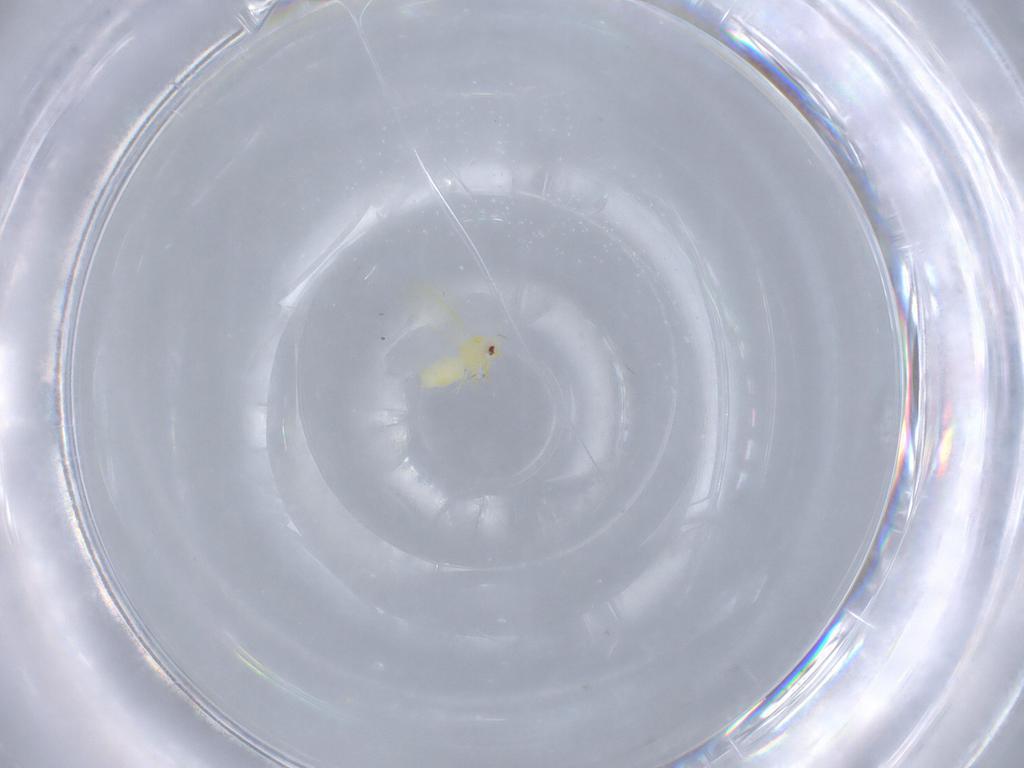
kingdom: Animalia
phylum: Arthropoda
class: Insecta
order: Hemiptera
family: Aleyrodidae
